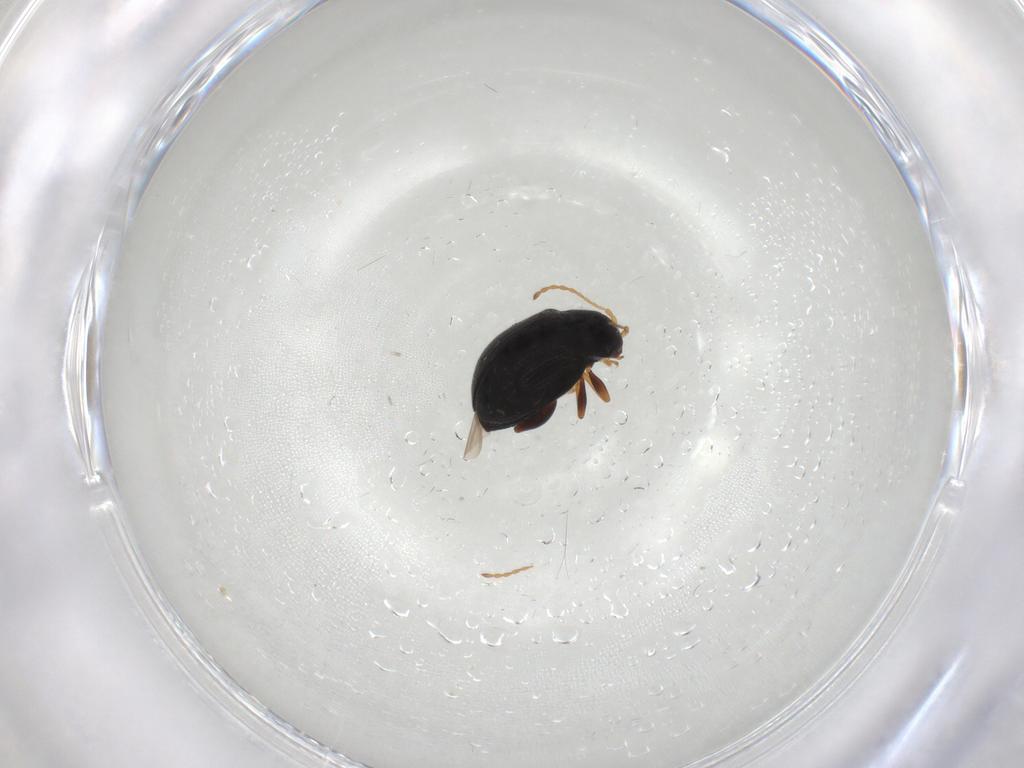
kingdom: Animalia
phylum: Arthropoda
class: Insecta
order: Coleoptera
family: Chrysomelidae
